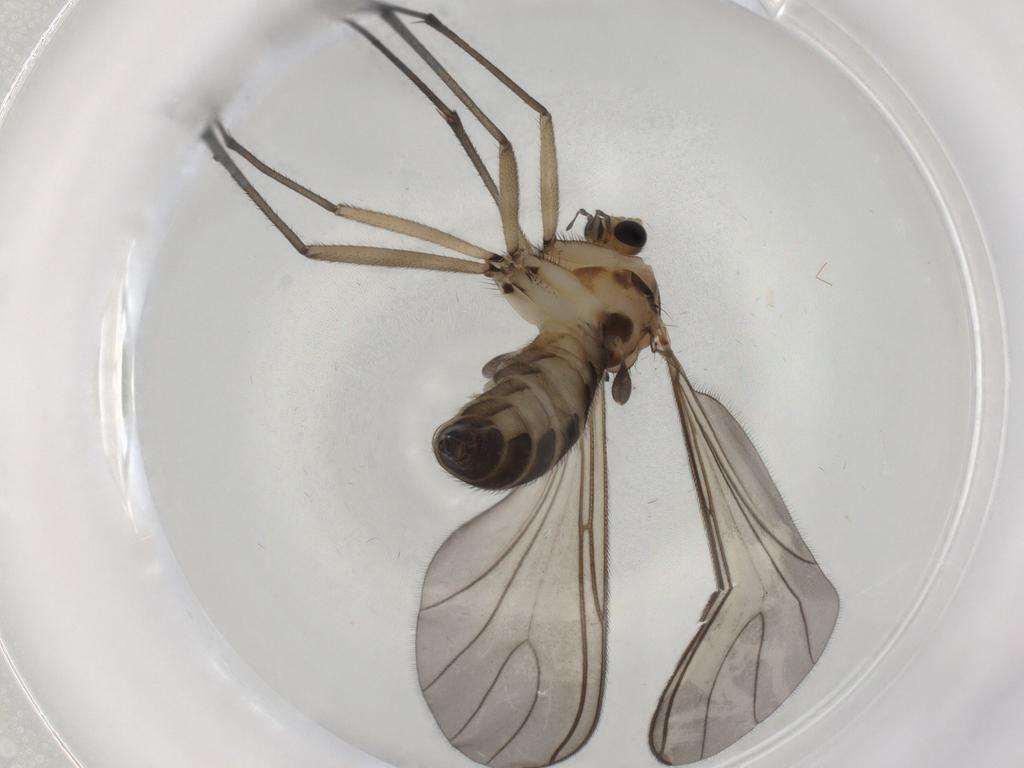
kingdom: Animalia
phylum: Arthropoda
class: Insecta
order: Diptera
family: Sciaridae
